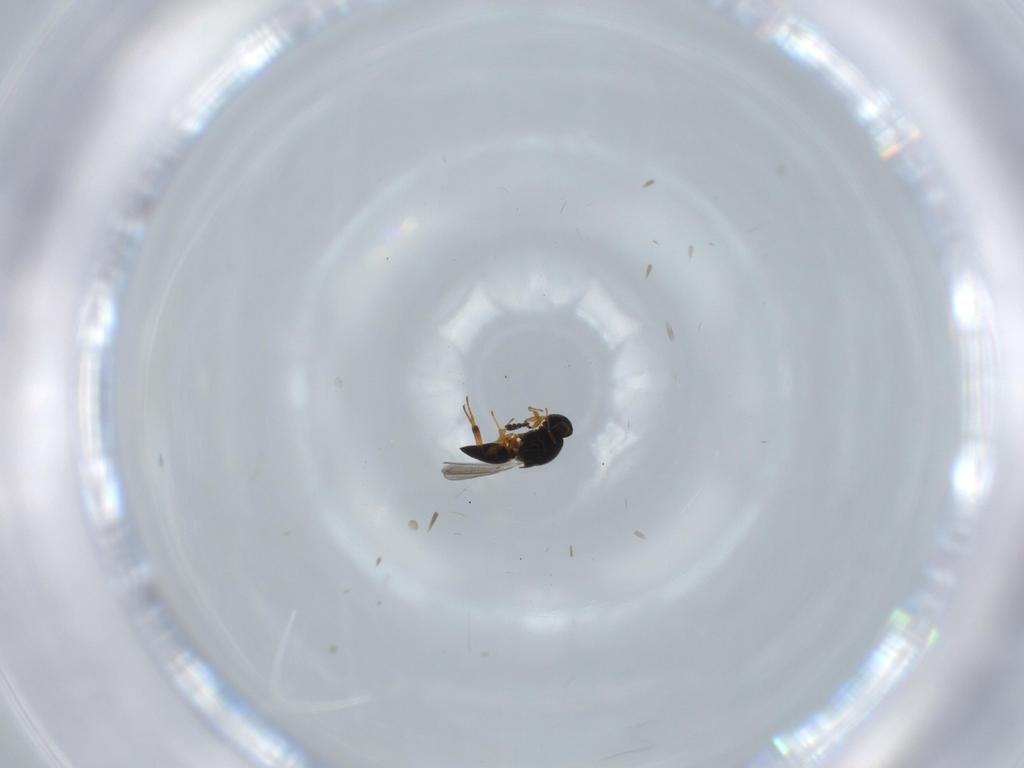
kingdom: Animalia
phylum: Arthropoda
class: Insecta
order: Hymenoptera
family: Platygastridae
